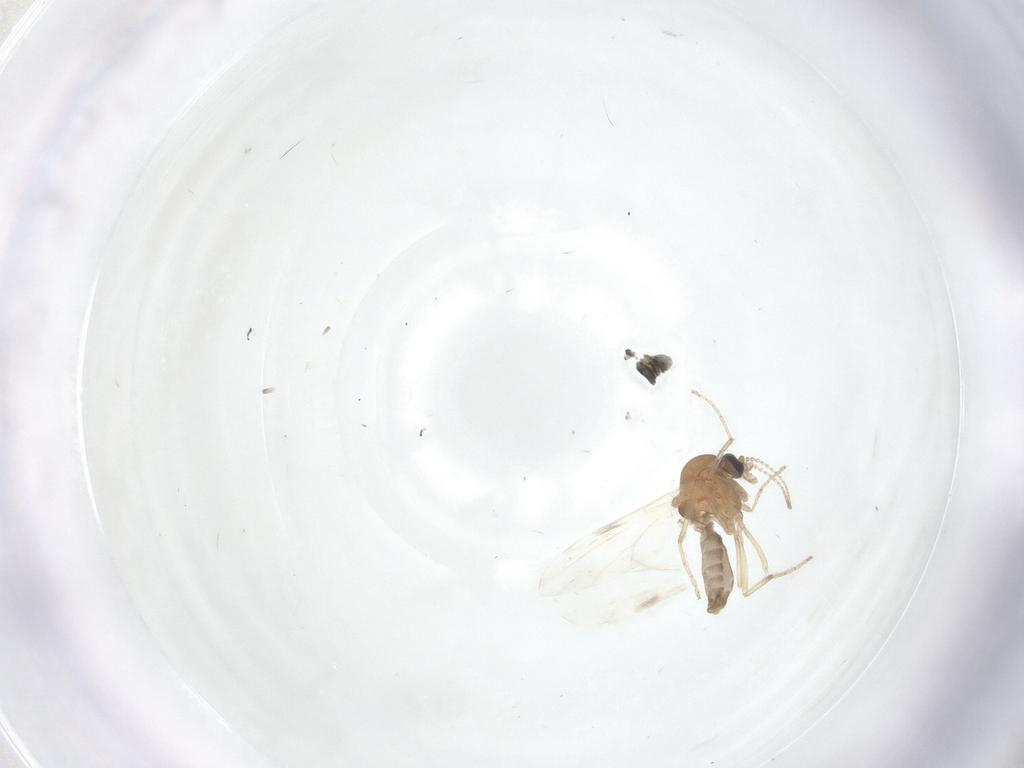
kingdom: Animalia
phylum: Arthropoda
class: Insecta
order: Diptera
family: Ceratopogonidae
